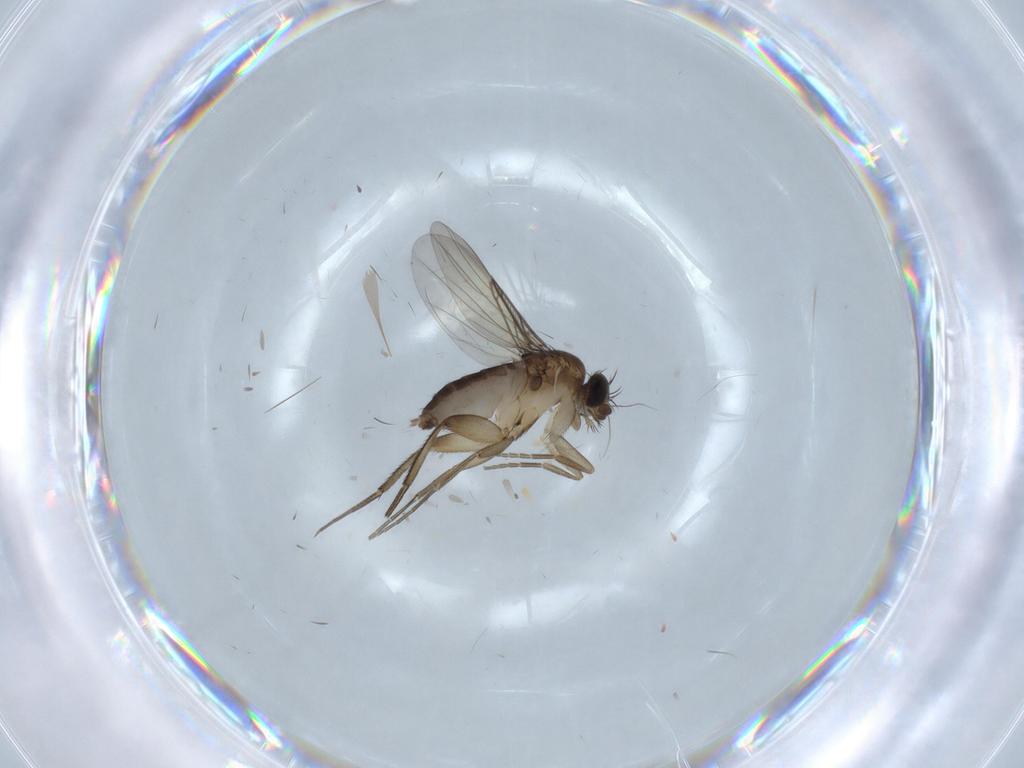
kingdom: Animalia
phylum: Arthropoda
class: Insecta
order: Diptera
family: Phoridae
